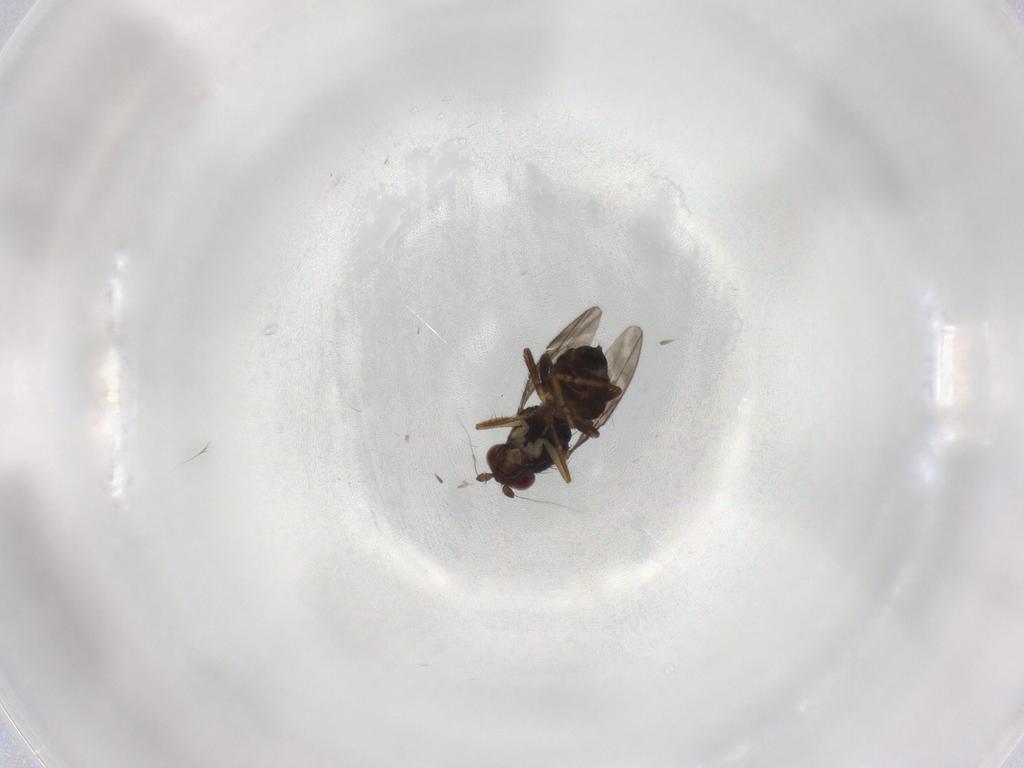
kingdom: Animalia
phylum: Arthropoda
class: Insecta
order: Diptera
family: Sphaeroceridae
